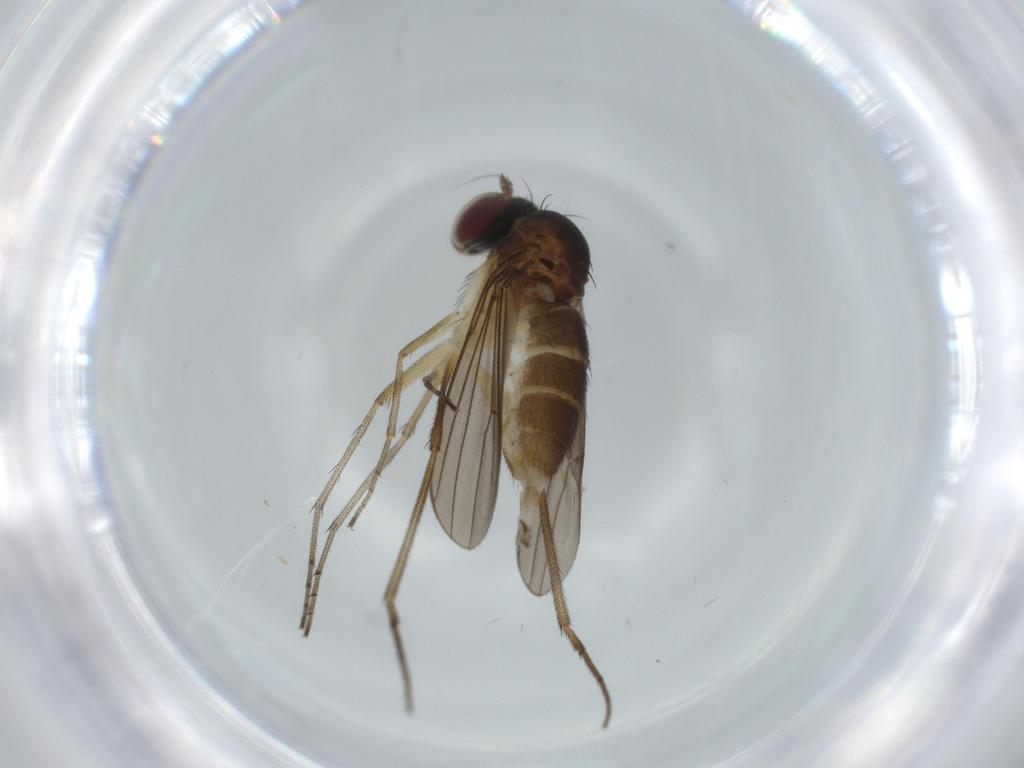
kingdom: Animalia
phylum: Arthropoda
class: Insecta
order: Diptera
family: Dolichopodidae
